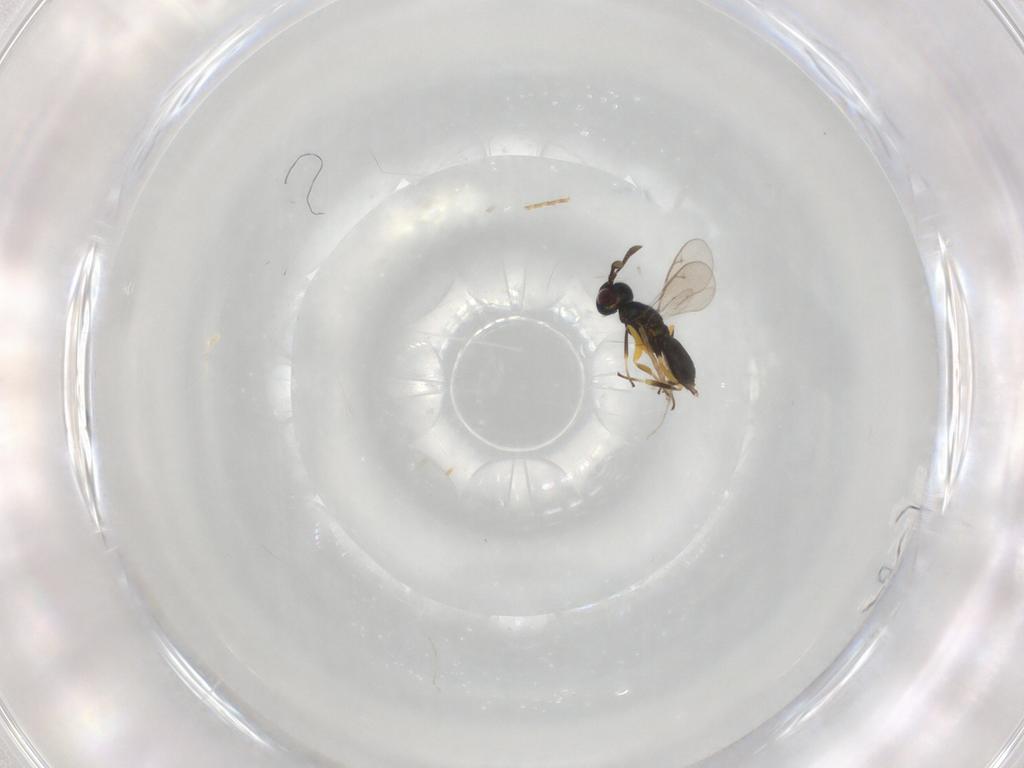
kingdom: Animalia
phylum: Arthropoda
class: Insecta
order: Hymenoptera
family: Eupelmidae
